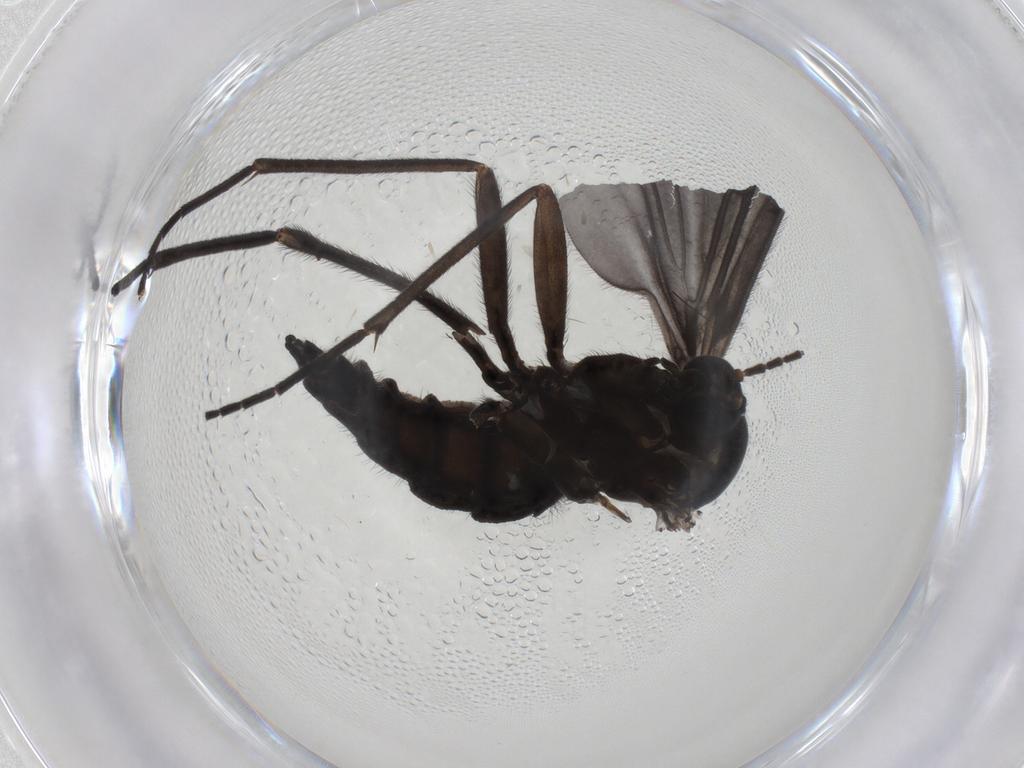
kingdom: Animalia
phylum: Arthropoda
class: Insecta
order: Diptera
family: Sciaridae
